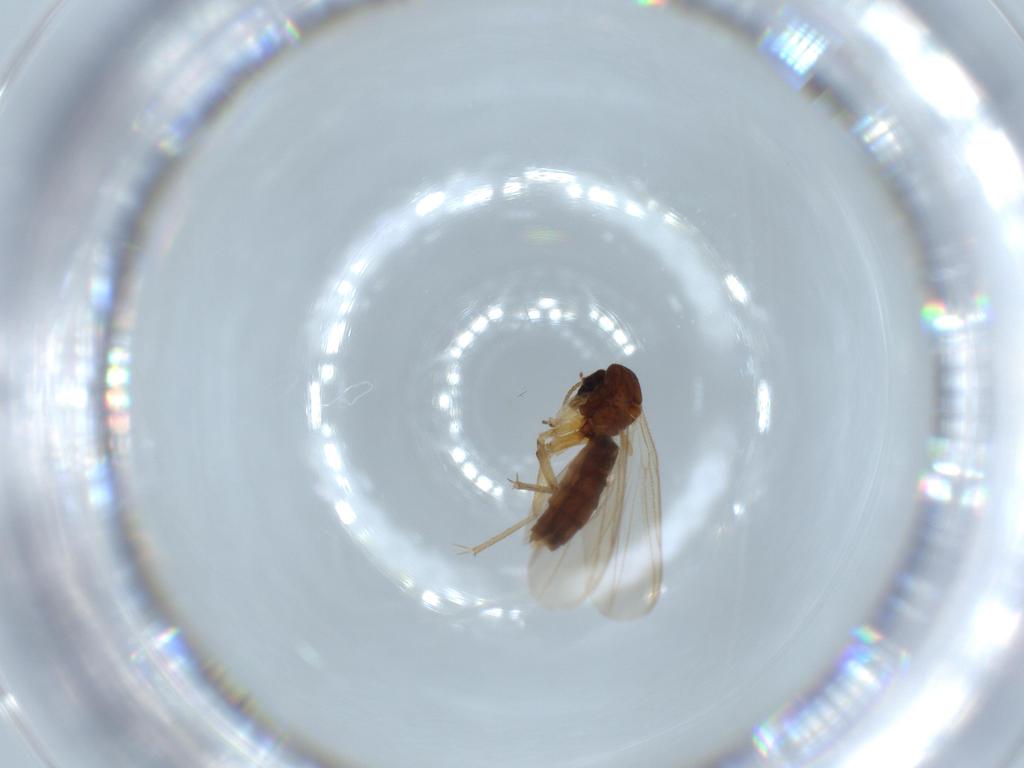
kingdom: Animalia
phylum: Arthropoda
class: Insecta
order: Diptera
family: Mycetophilidae
